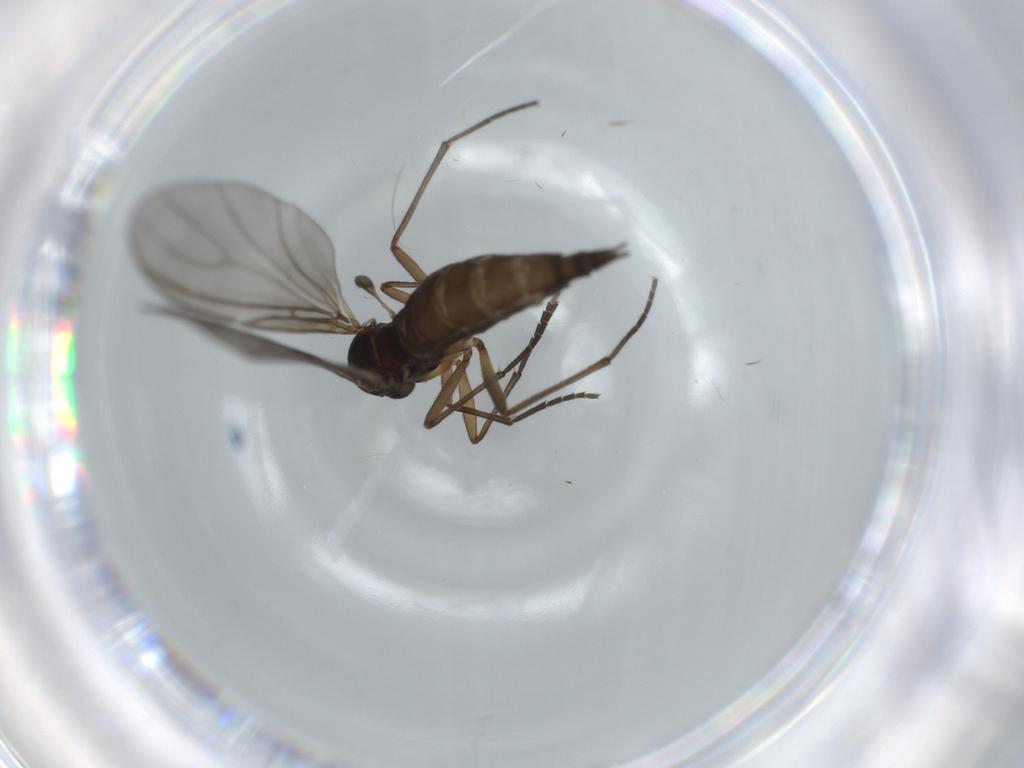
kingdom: Animalia
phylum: Arthropoda
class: Insecta
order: Diptera
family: Sciaridae
